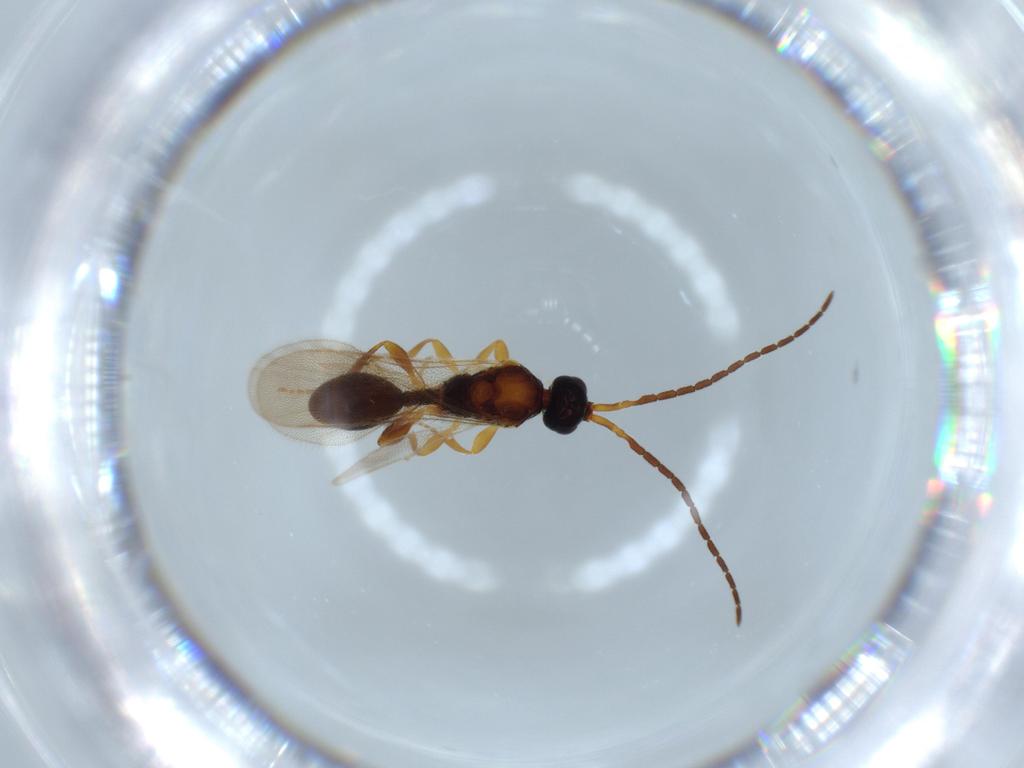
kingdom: Animalia
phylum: Arthropoda
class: Insecta
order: Hymenoptera
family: Diapriidae
